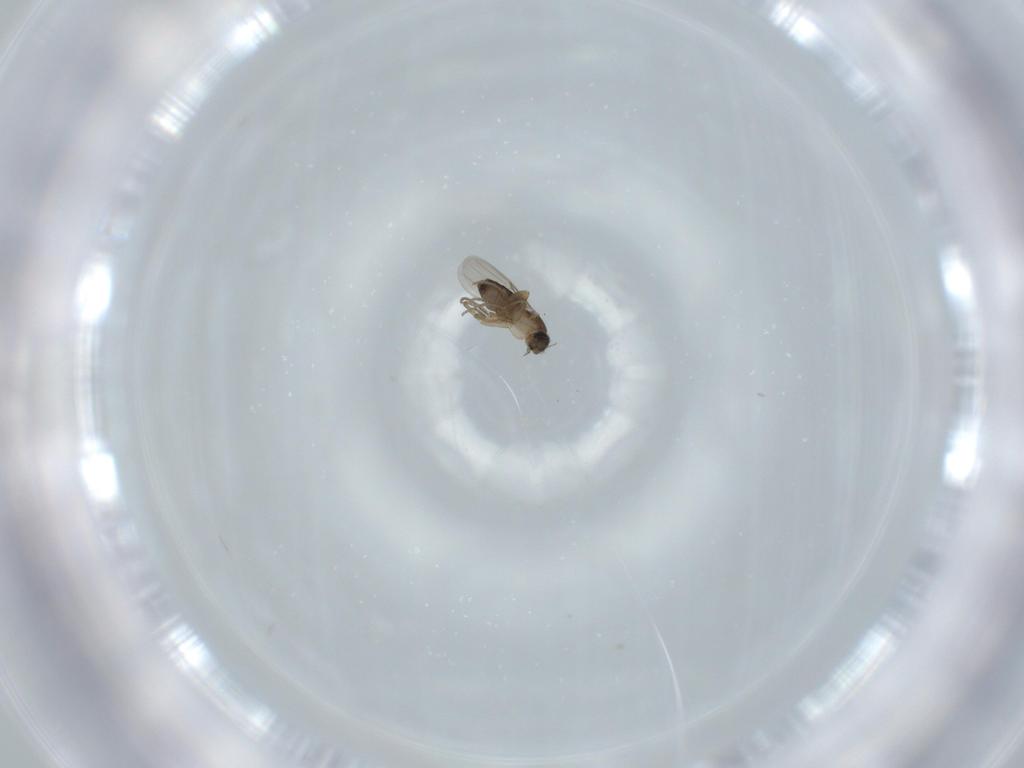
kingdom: Animalia
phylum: Arthropoda
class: Insecta
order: Diptera
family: Phoridae
